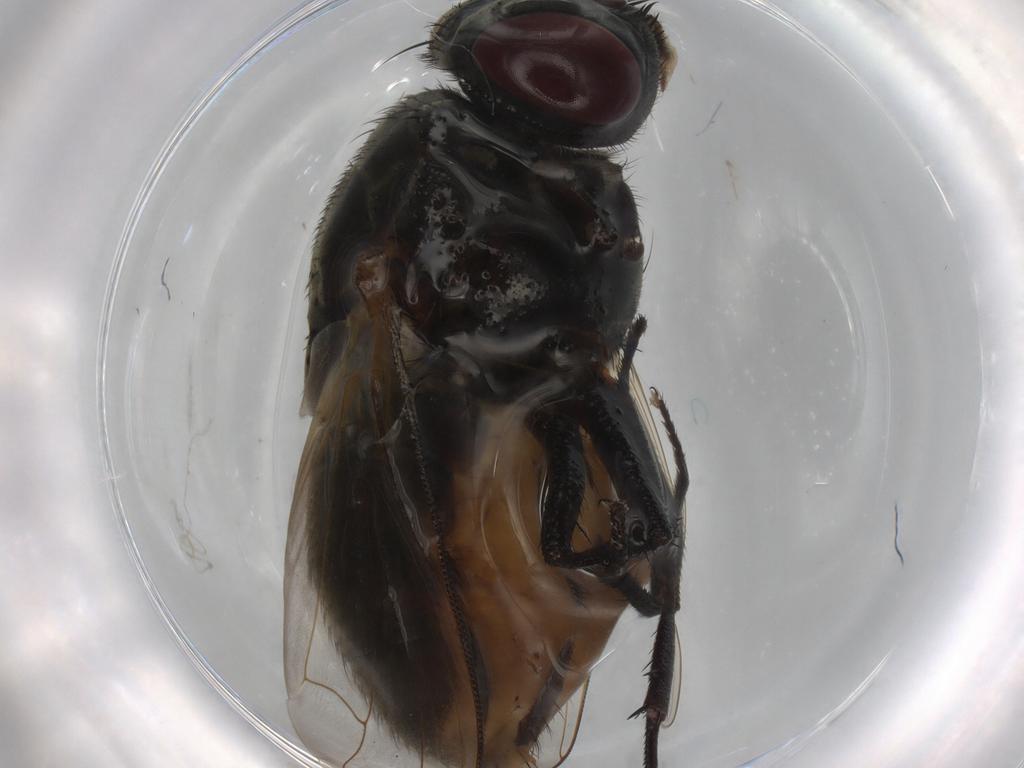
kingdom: Animalia
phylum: Arthropoda
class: Insecta
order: Diptera
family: Muscidae
